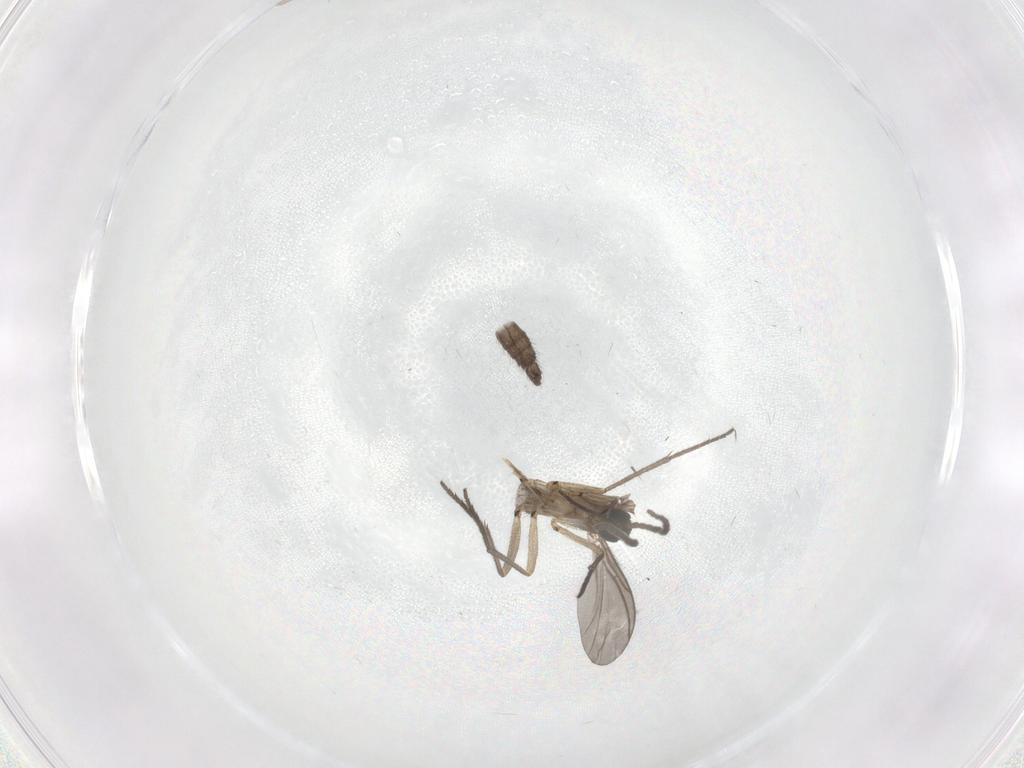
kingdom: Animalia
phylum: Arthropoda
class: Insecta
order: Diptera
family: Sciaridae
